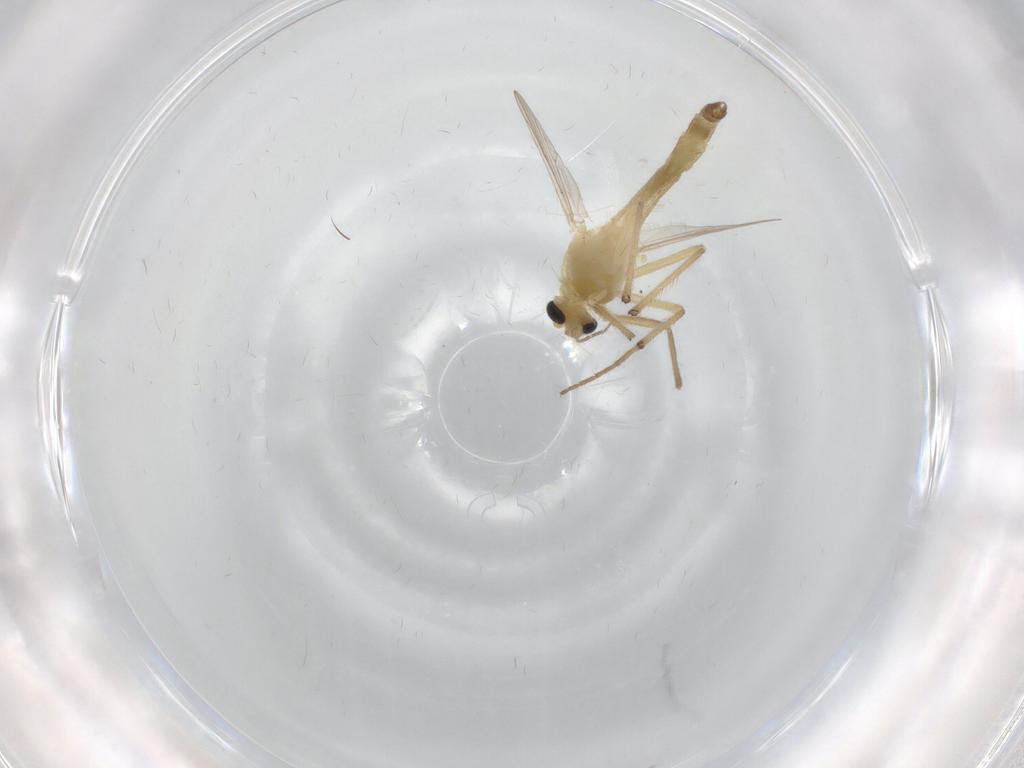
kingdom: Animalia
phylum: Arthropoda
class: Insecta
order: Diptera
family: Chironomidae
